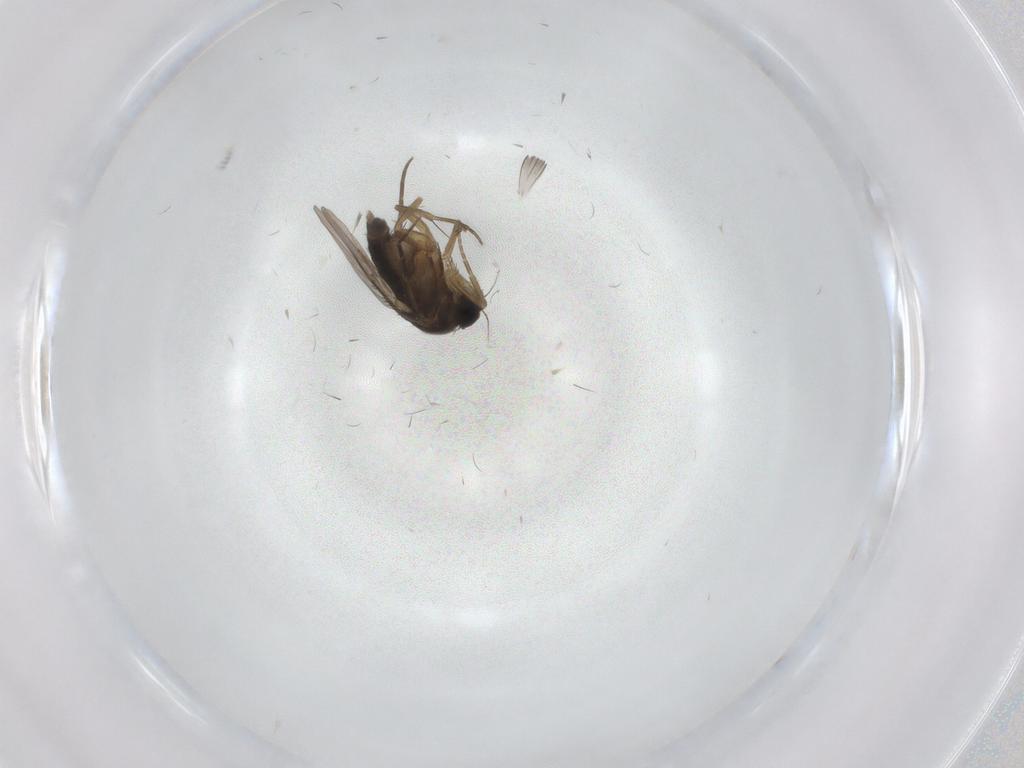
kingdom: Animalia
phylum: Arthropoda
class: Insecta
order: Diptera
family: Phoridae
